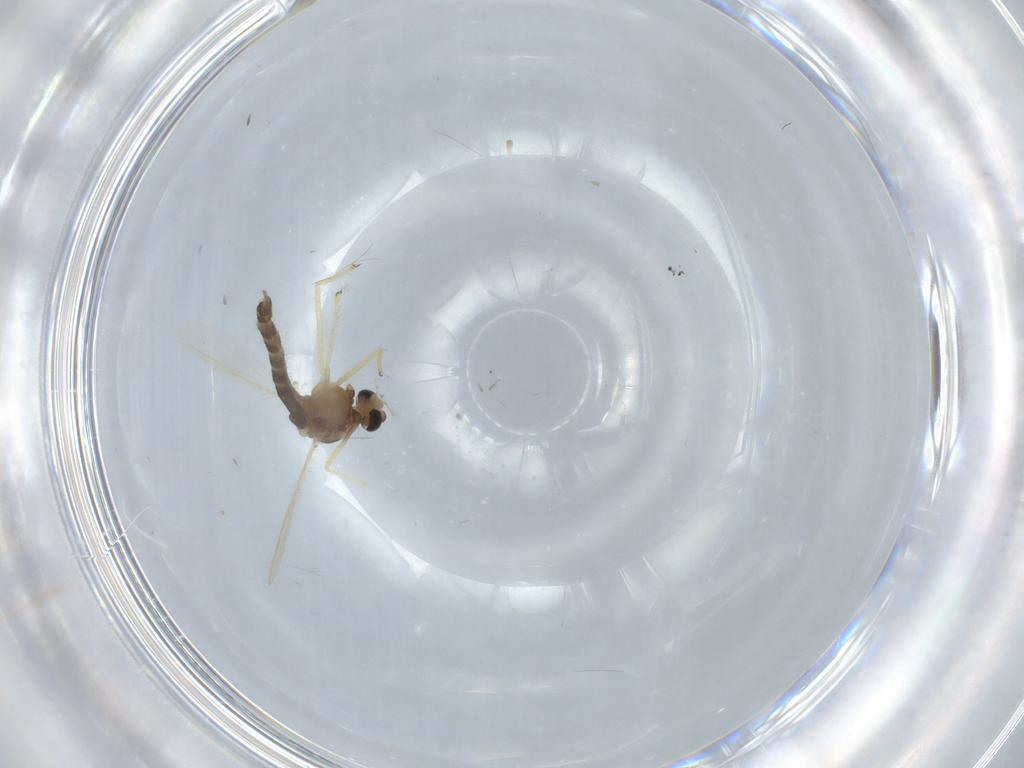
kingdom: Animalia
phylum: Arthropoda
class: Insecta
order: Diptera
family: Chironomidae
